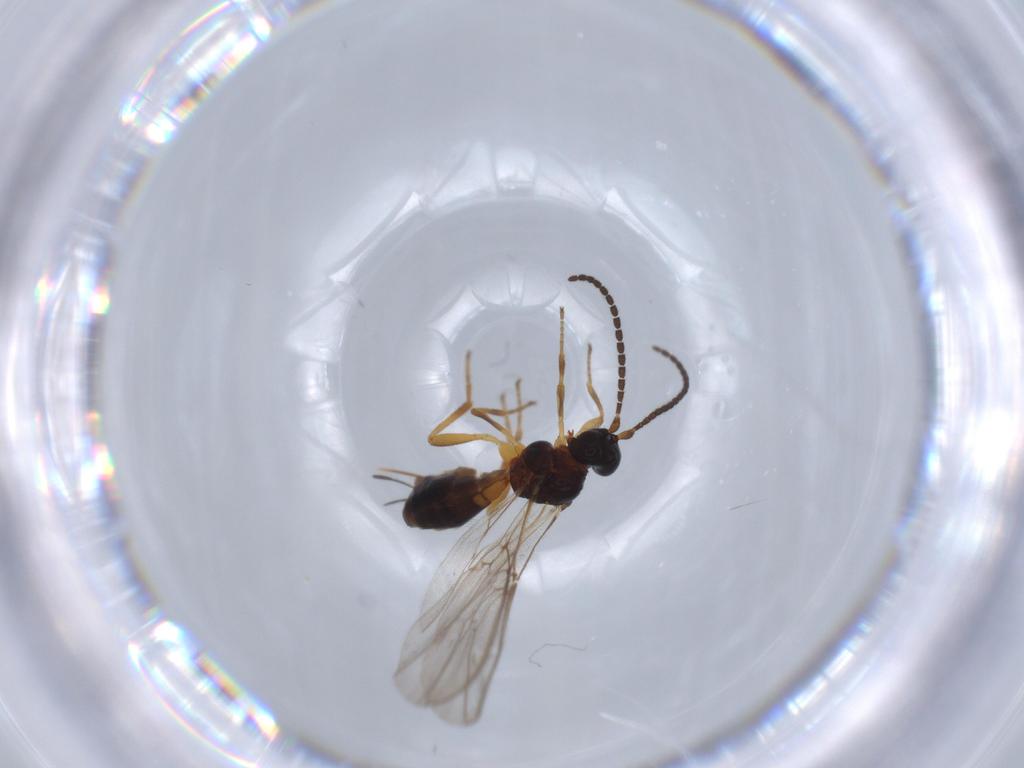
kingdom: Animalia
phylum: Arthropoda
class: Insecta
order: Hymenoptera
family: Braconidae
